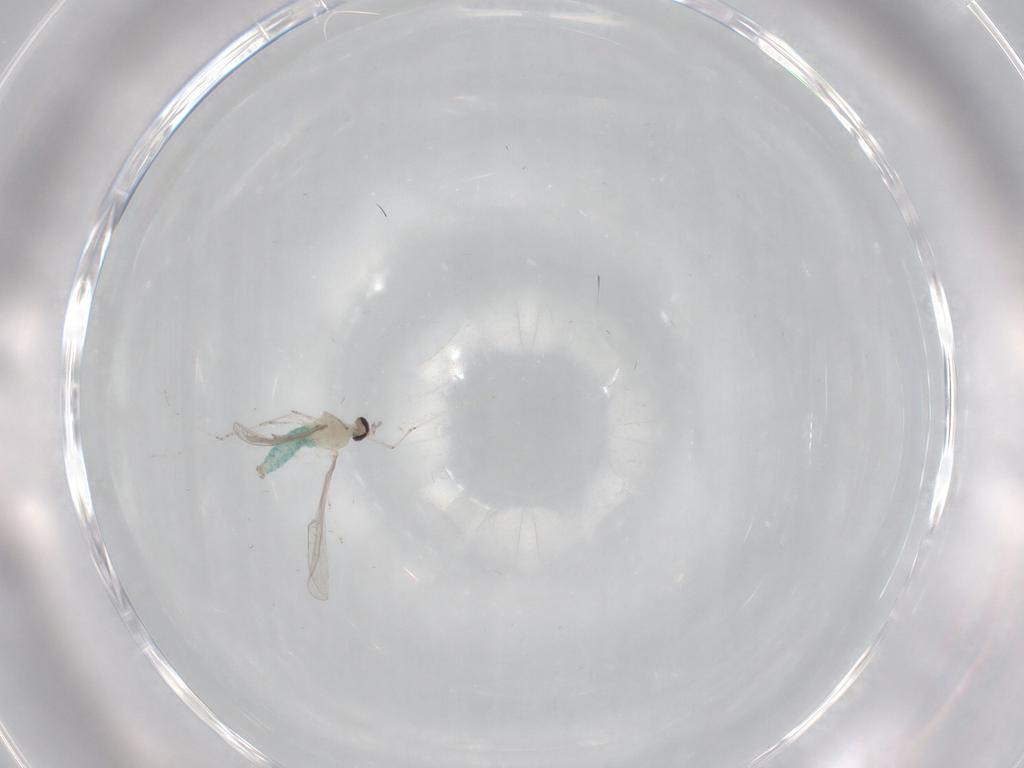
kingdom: Animalia
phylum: Arthropoda
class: Insecta
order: Diptera
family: Cecidomyiidae
